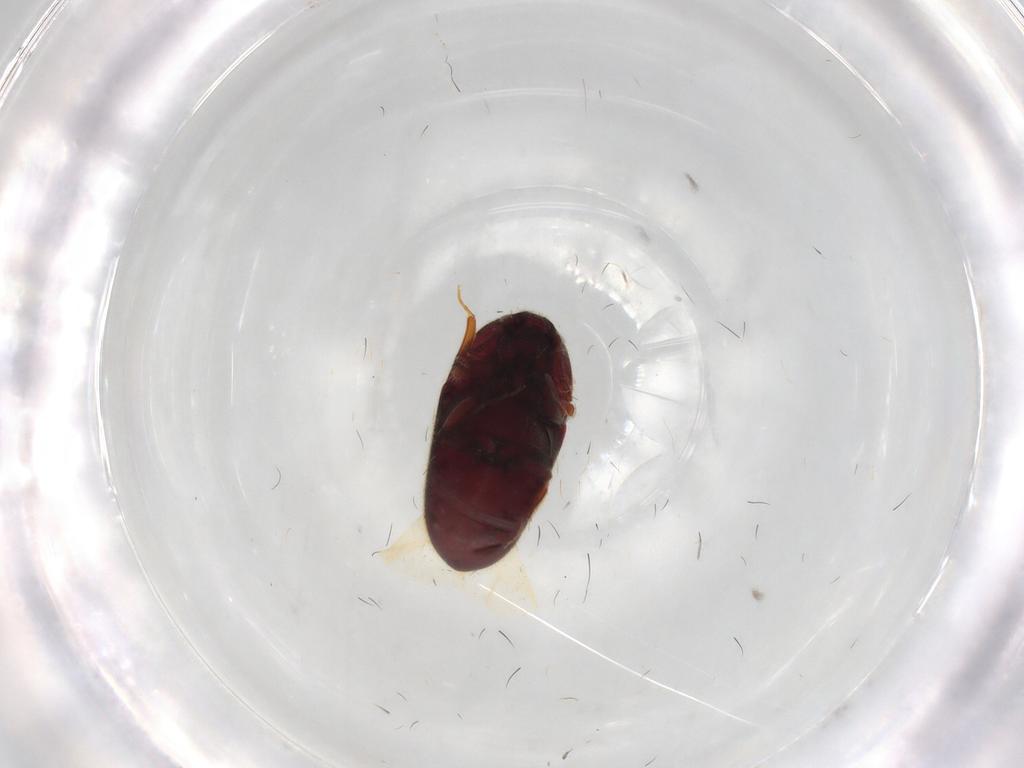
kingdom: Animalia
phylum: Arthropoda
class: Insecta
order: Coleoptera
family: Throscidae
